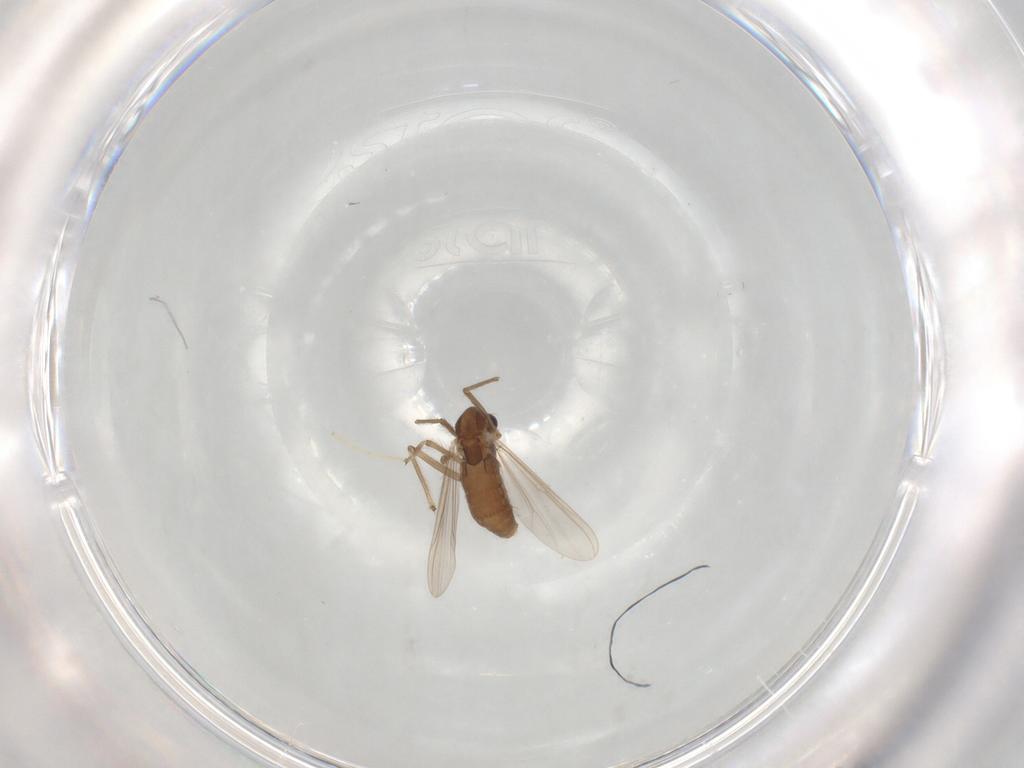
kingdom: Animalia
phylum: Arthropoda
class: Insecta
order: Diptera
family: Chironomidae
